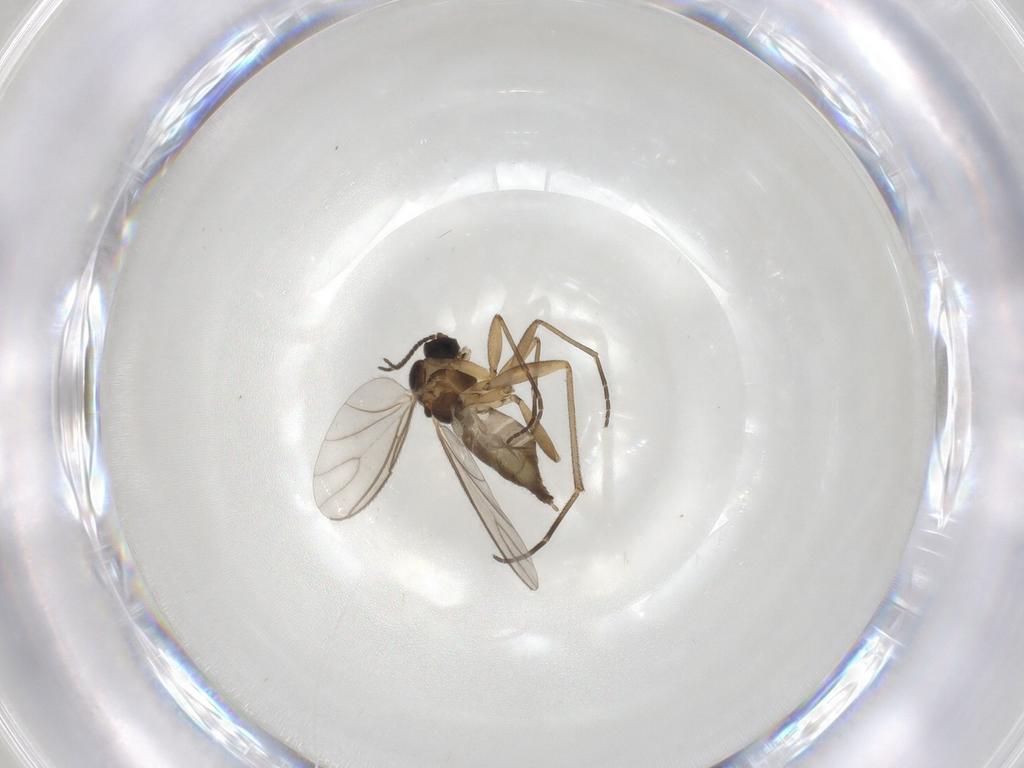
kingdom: Animalia
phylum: Arthropoda
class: Insecta
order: Diptera
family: Sciaridae
